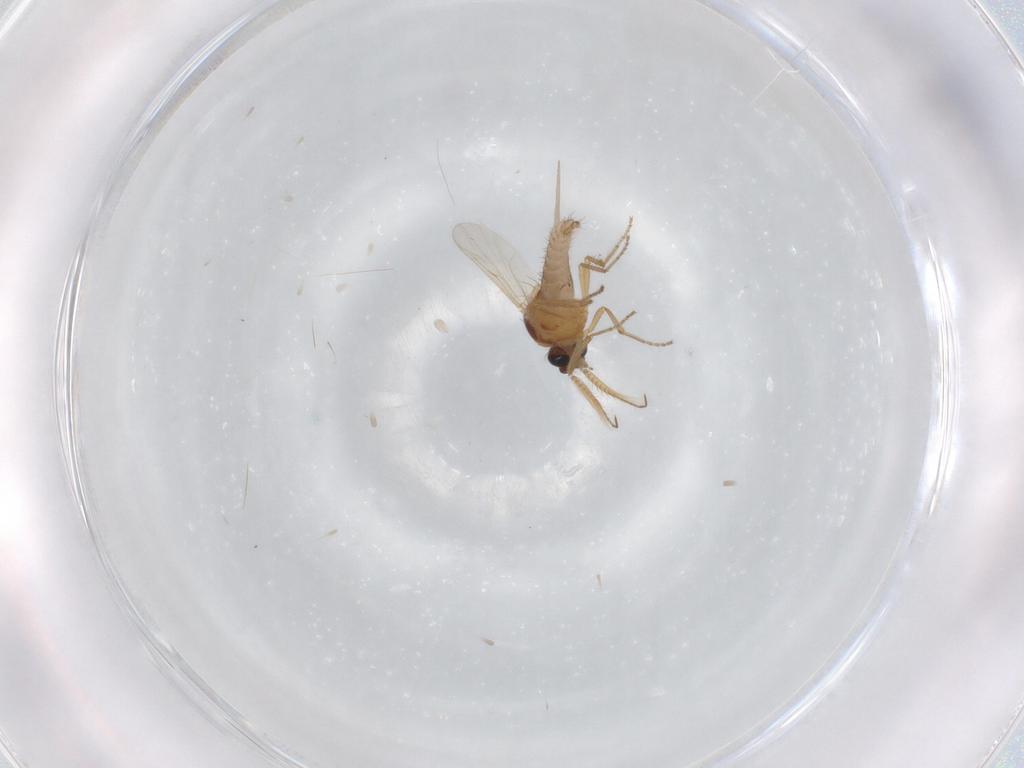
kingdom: Animalia
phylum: Arthropoda
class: Insecta
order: Diptera
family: Ceratopogonidae
